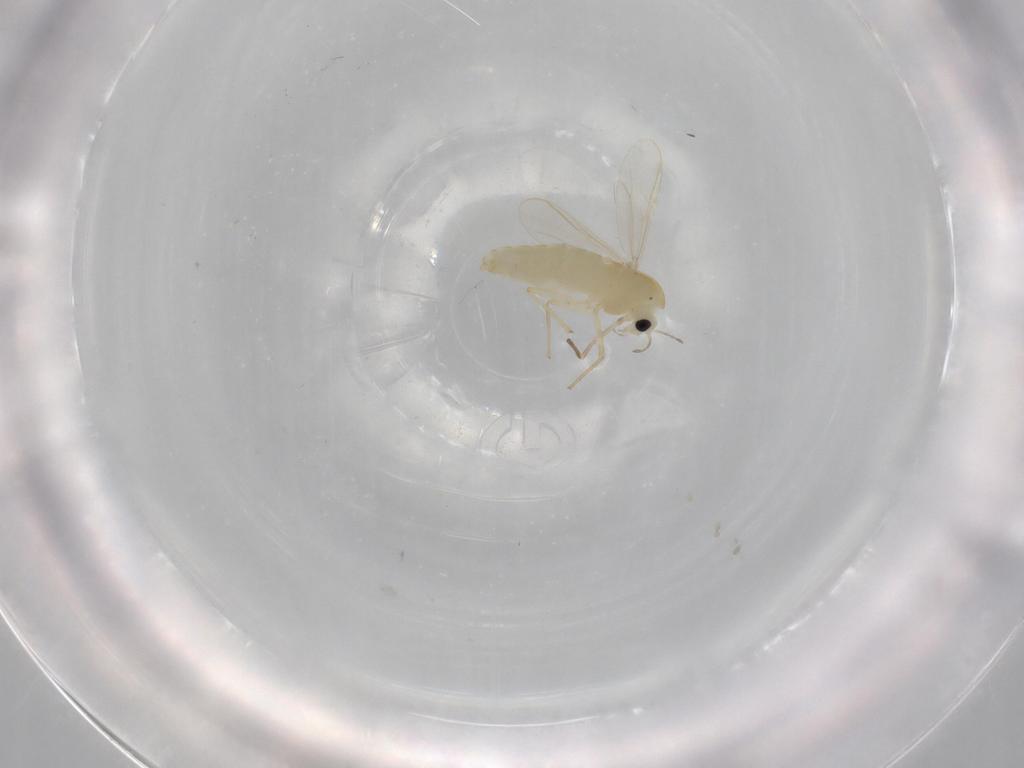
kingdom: Animalia
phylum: Arthropoda
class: Insecta
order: Diptera
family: Chironomidae
